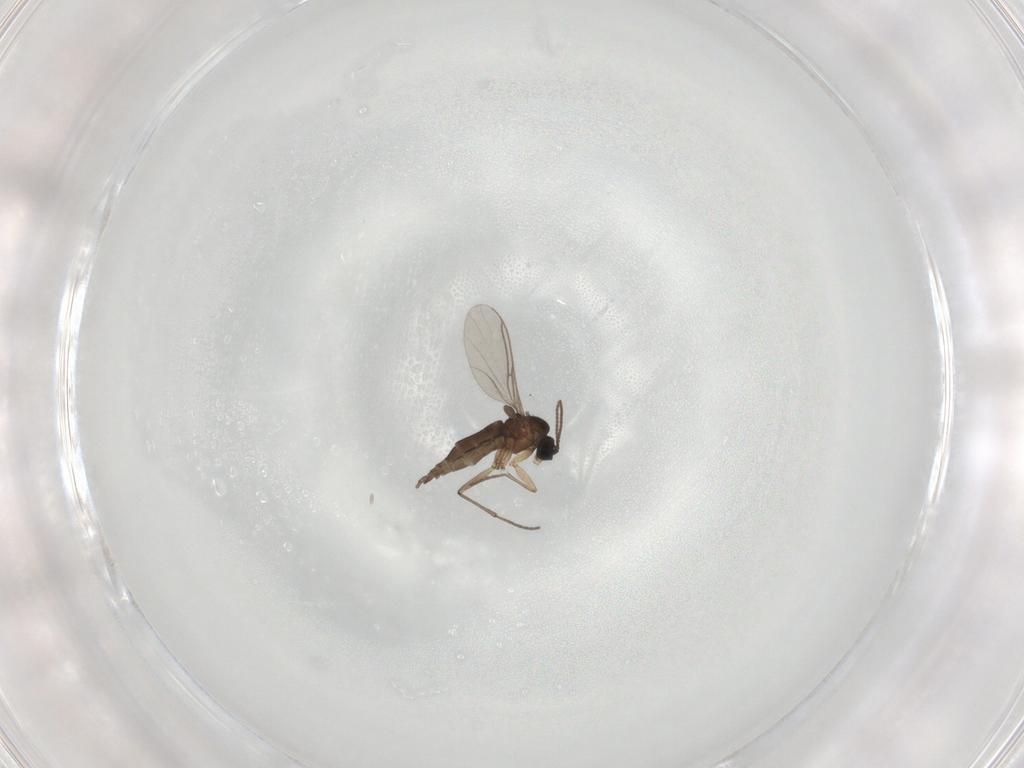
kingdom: Animalia
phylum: Arthropoda
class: Insecta
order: Diptera
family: Sciaridae
